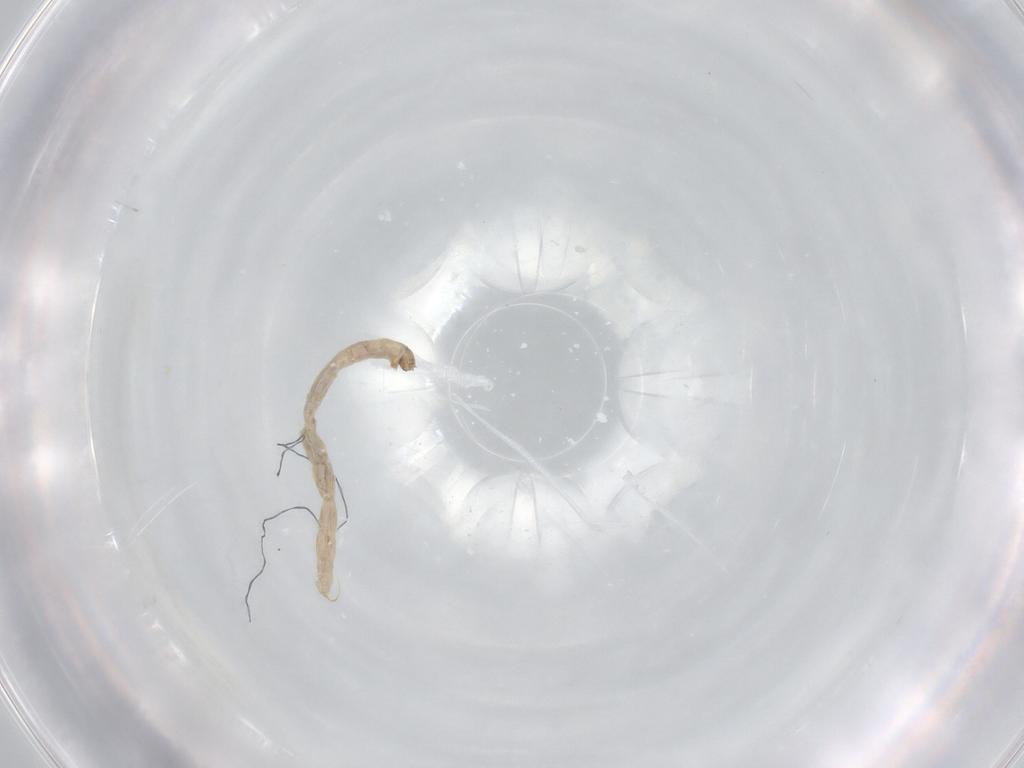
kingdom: Animalia
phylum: Arthropoda
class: Insecta
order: Diptera
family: Chironomidae
